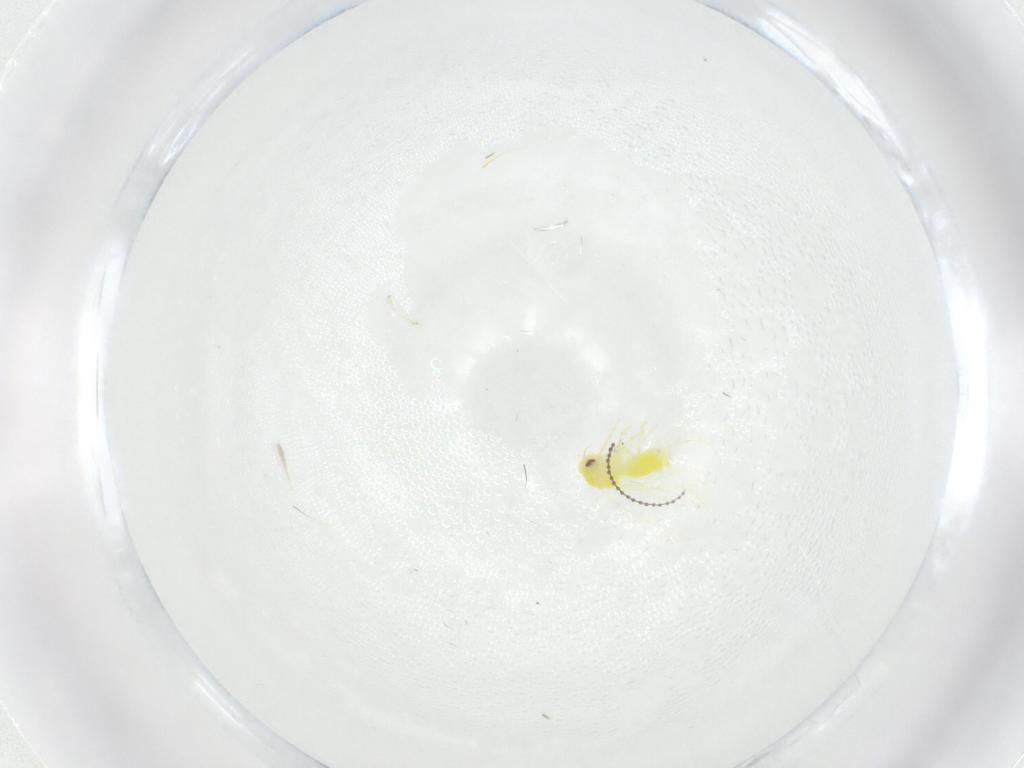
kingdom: Animalia
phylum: Arthropoda
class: Insecta
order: Hemiptera
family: Aleyrodidae
